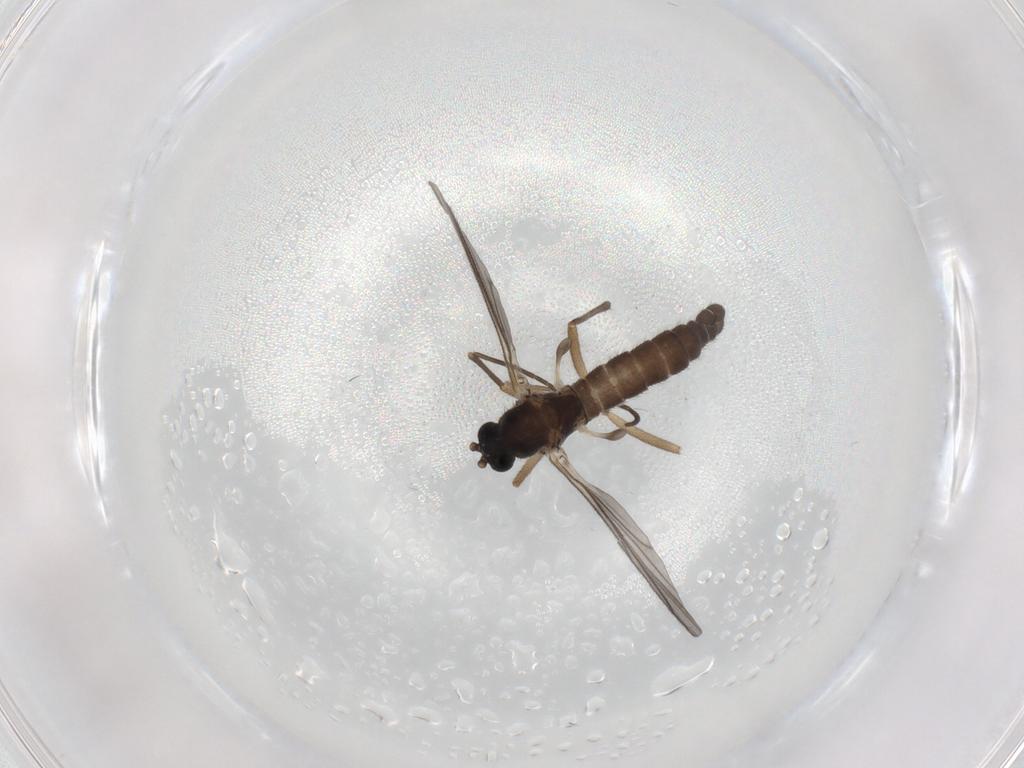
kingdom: Animalia
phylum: Arthropoda
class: Insecta
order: Diptera
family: Sciaridae
